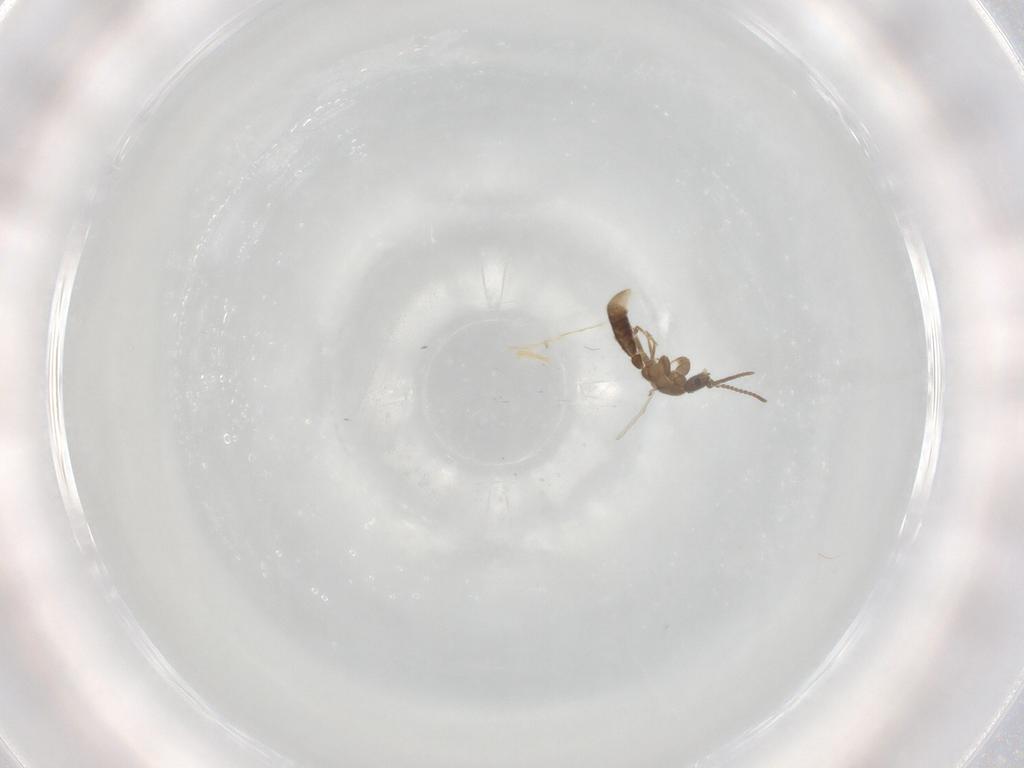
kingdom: Animalia
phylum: Arthropoda
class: Insecta
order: Hymenoptera
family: Formicidae
